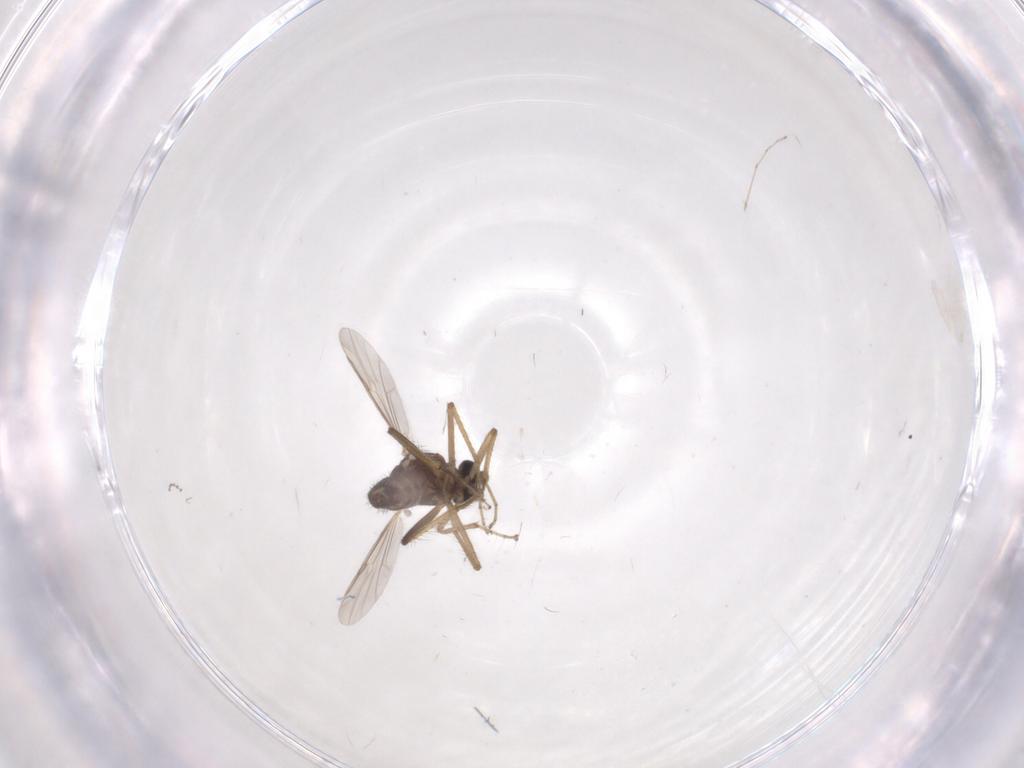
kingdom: Animalia
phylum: Arthropoda
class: Insecta
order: Diptera
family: Ceratopogonidae
